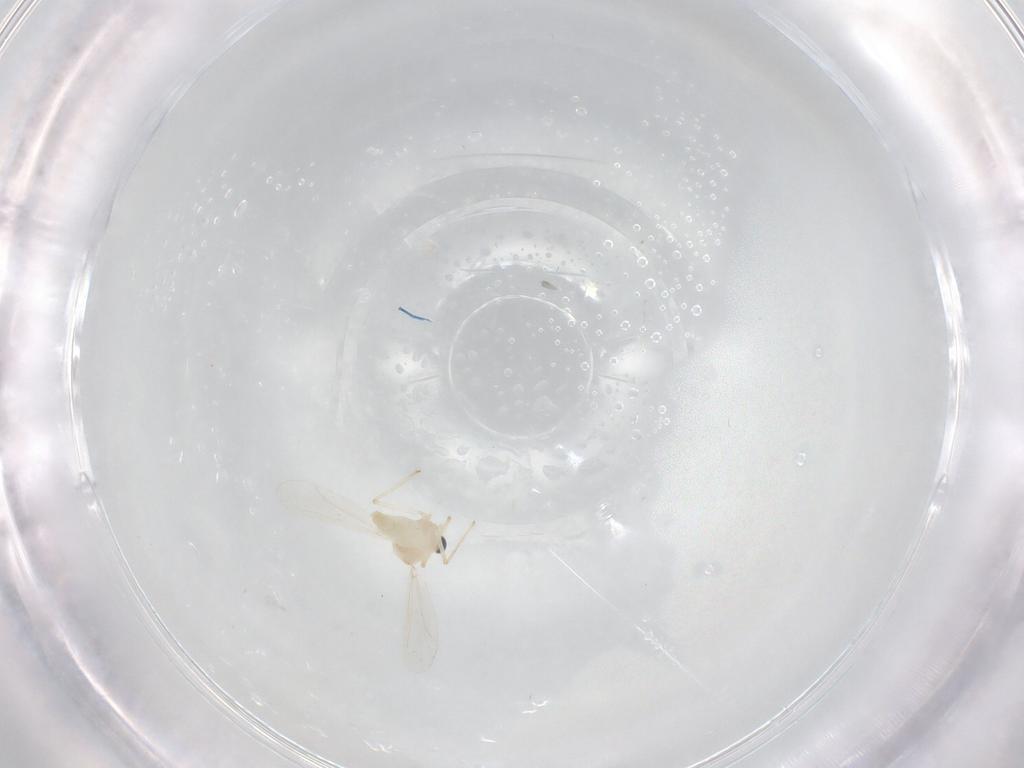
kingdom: Animalia
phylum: Arthropoda
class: Insecta
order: Diptera
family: Chironomidae
